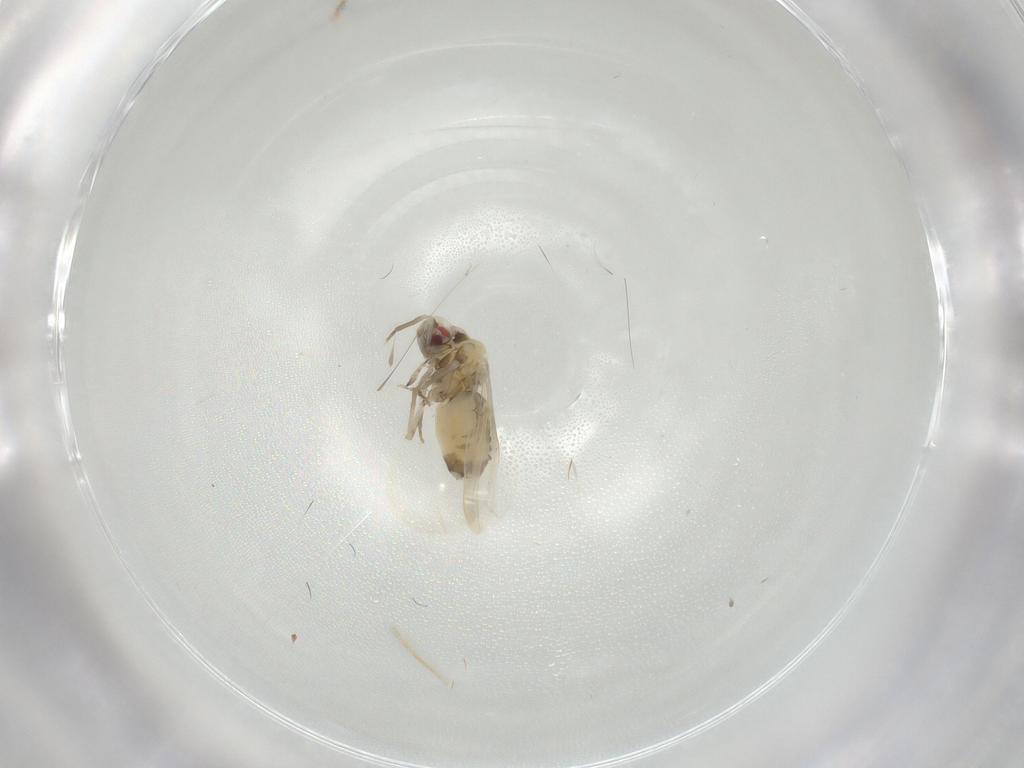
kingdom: Animalia
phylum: Arthropoda
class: Insecta
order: Hemiptera
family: Aleyrodidae
